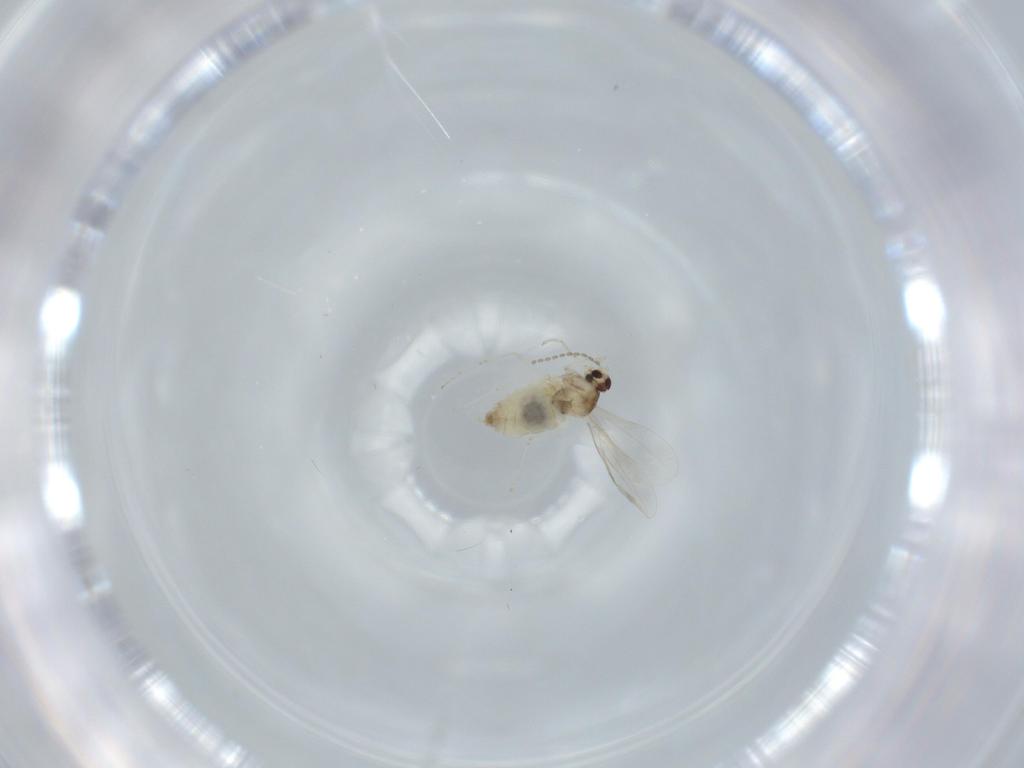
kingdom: Animalia
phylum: Arthropoda
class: Insecta
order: Diptera
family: Cecidomyiidae
